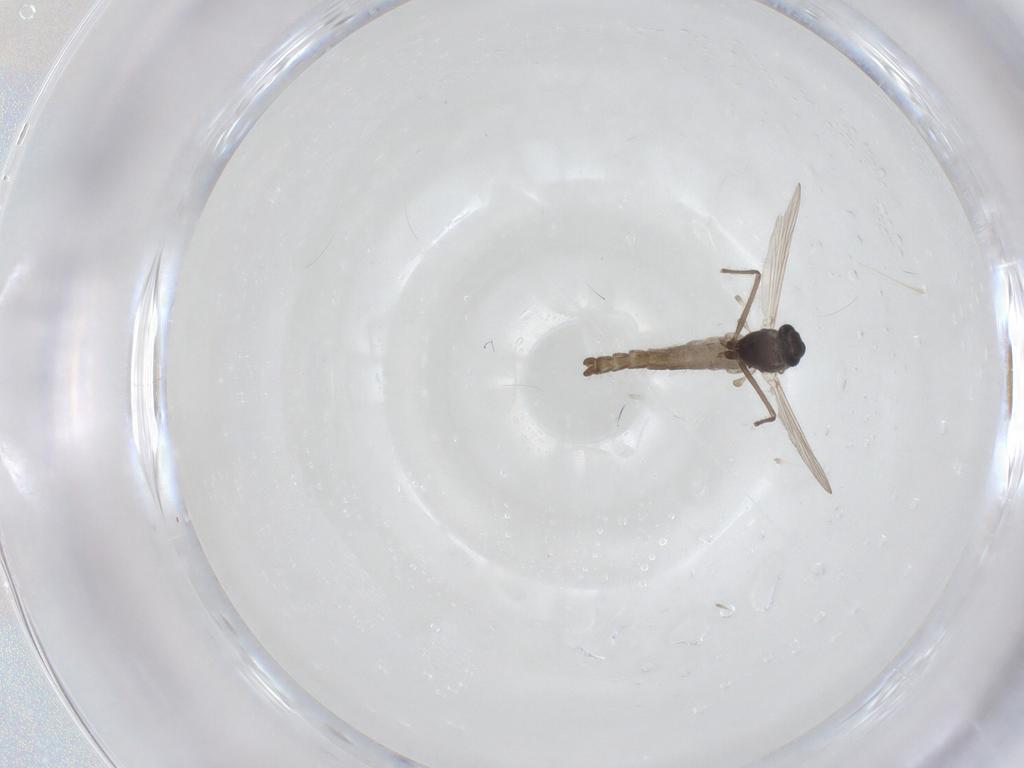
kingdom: Animalia
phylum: Arthropoda
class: Insecta
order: Diptera
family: Chironomidae
